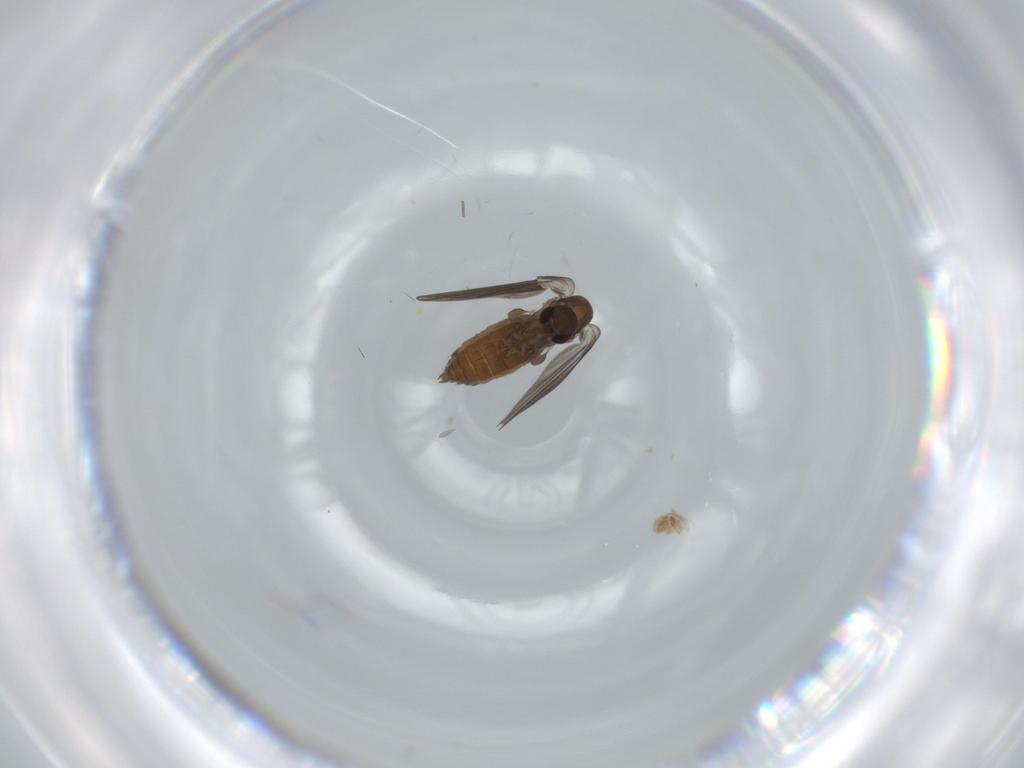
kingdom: Animalia
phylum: Arthropoda
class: Insecta
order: Diptera
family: Psychodidae
